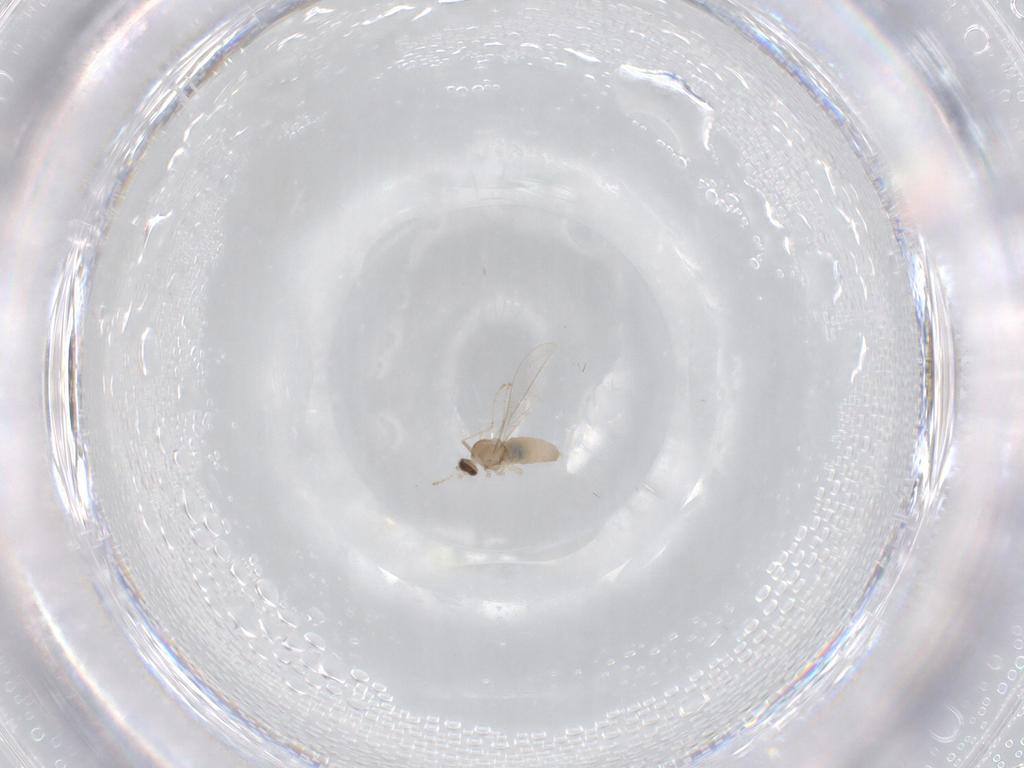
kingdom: Animalia
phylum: Arthropoda
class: Insecta
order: Diptera
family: Cecidomyiidae
